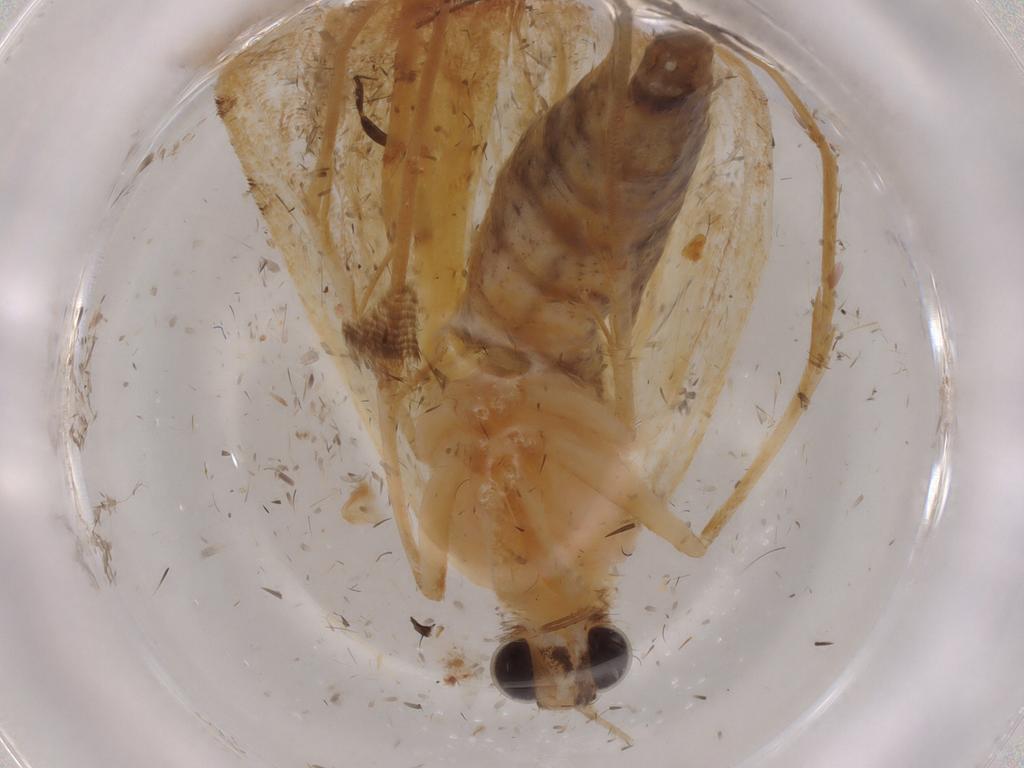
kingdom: Animalia
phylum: Arthropoda
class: Insecta
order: Lepidoptera
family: Crambidae
